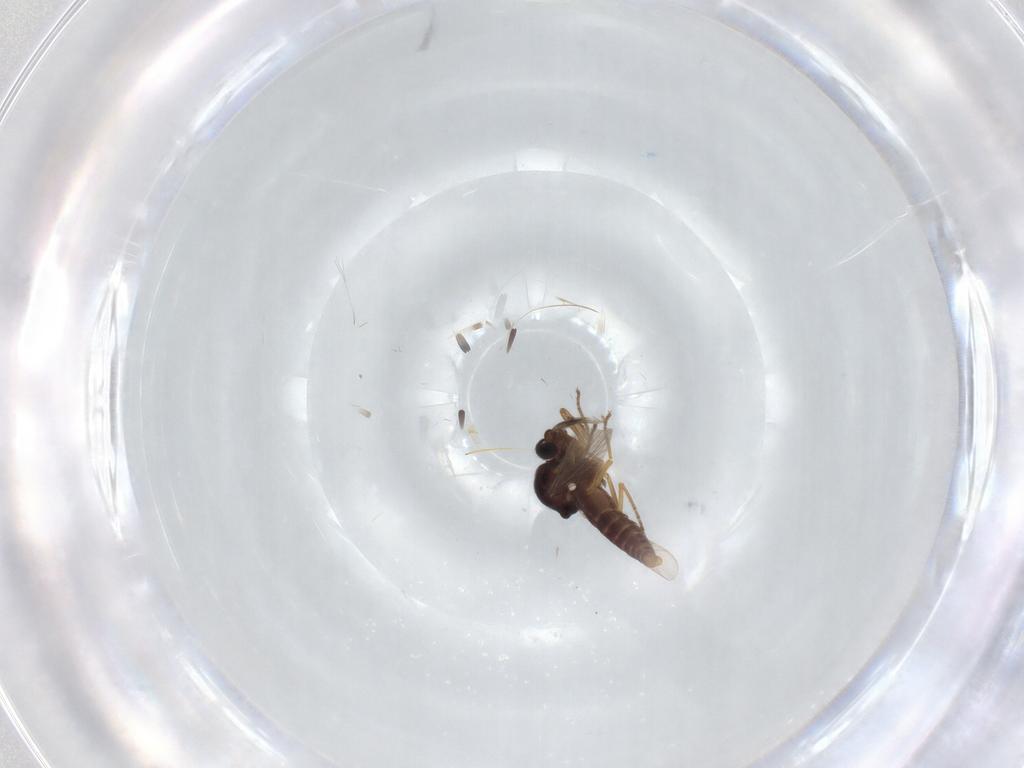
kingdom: Animalia
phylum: Arthropoda
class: Insecta
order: Diptera
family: Ceratopogonidae
